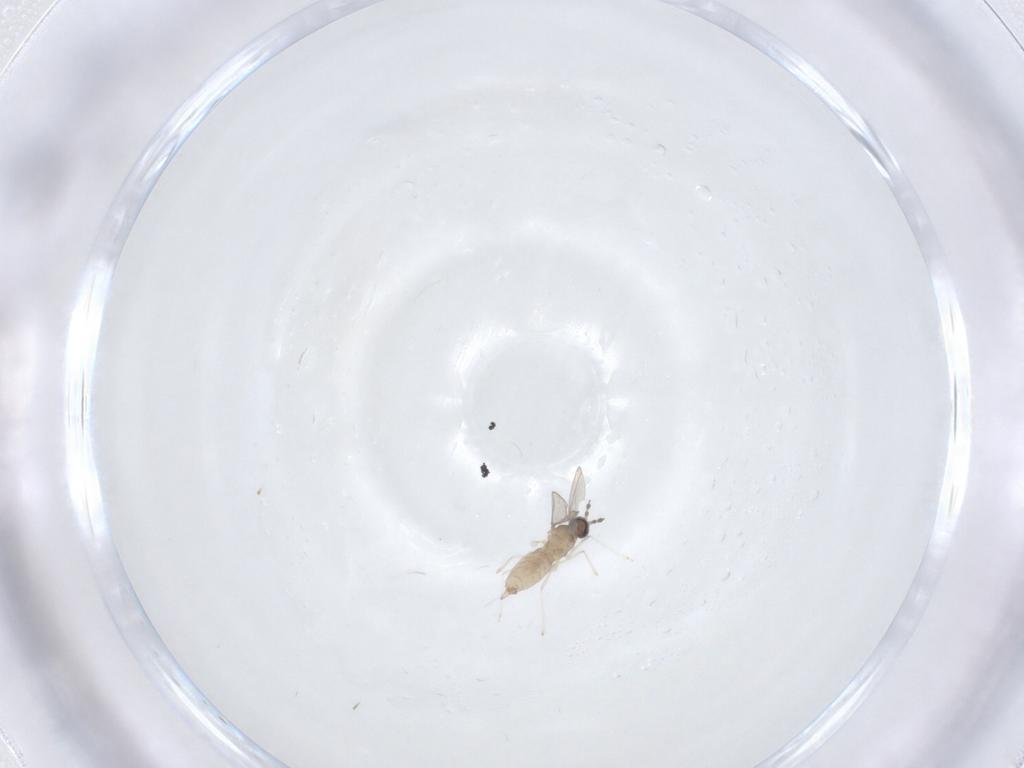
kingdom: Animalia
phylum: Arthropoda
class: Insecta
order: Diptera
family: Cecidomyiidae
